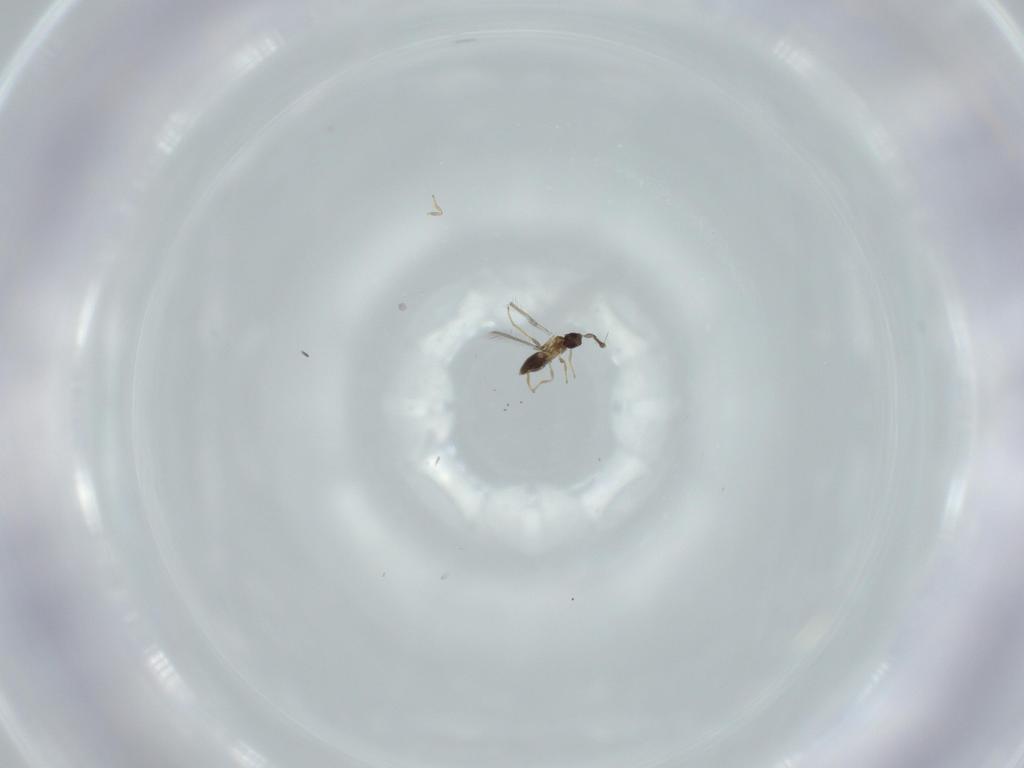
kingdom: Animalia
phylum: Arthropoda
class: Insecta
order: Hymenoptera
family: Mymaridae
